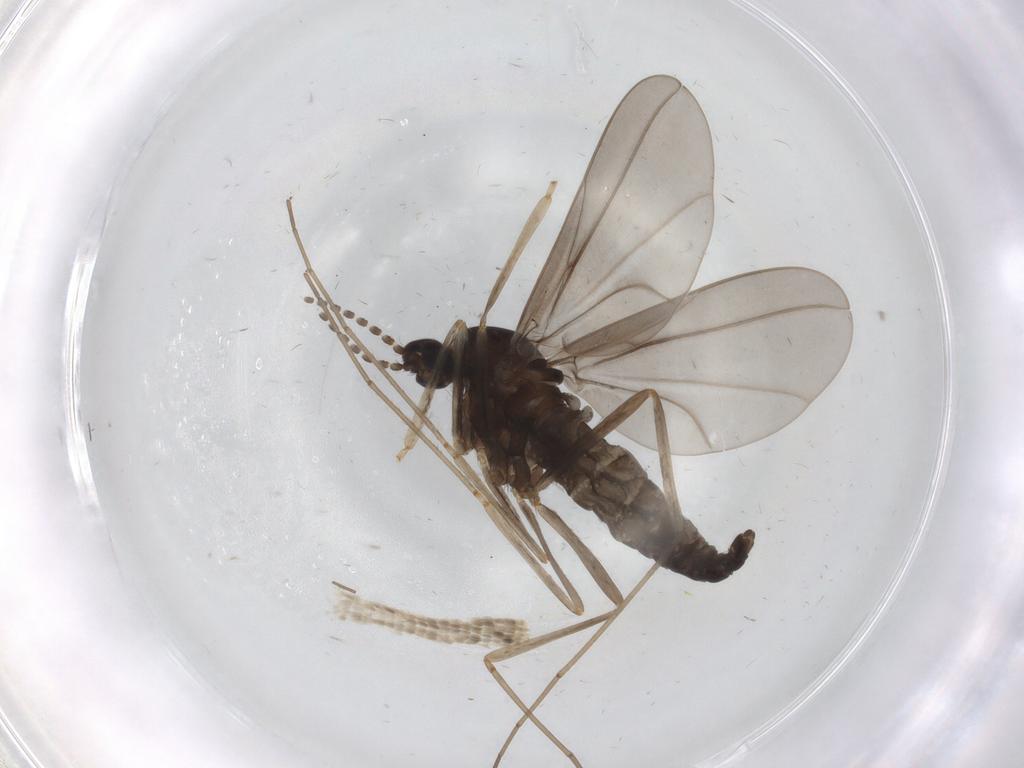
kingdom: Animalia
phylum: Arthropoda
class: Insecta
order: Diptera
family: Cecidomyiidae
